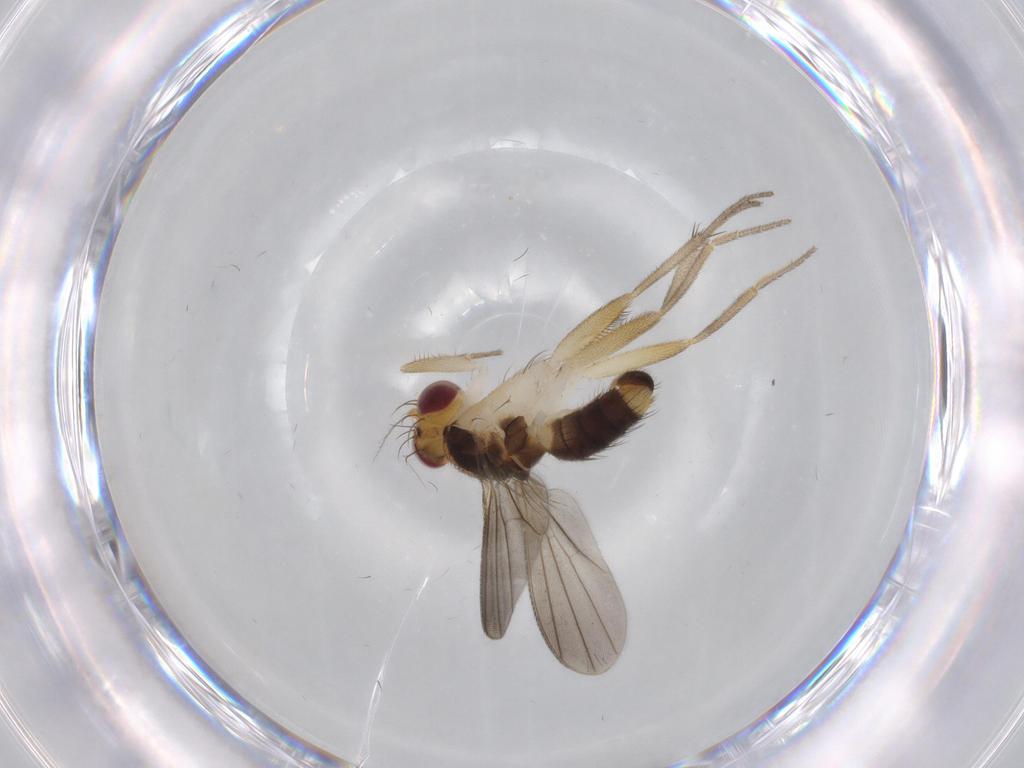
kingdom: Animalia
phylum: Arthropoda
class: Insecta
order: Diptera
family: Clusiidae
